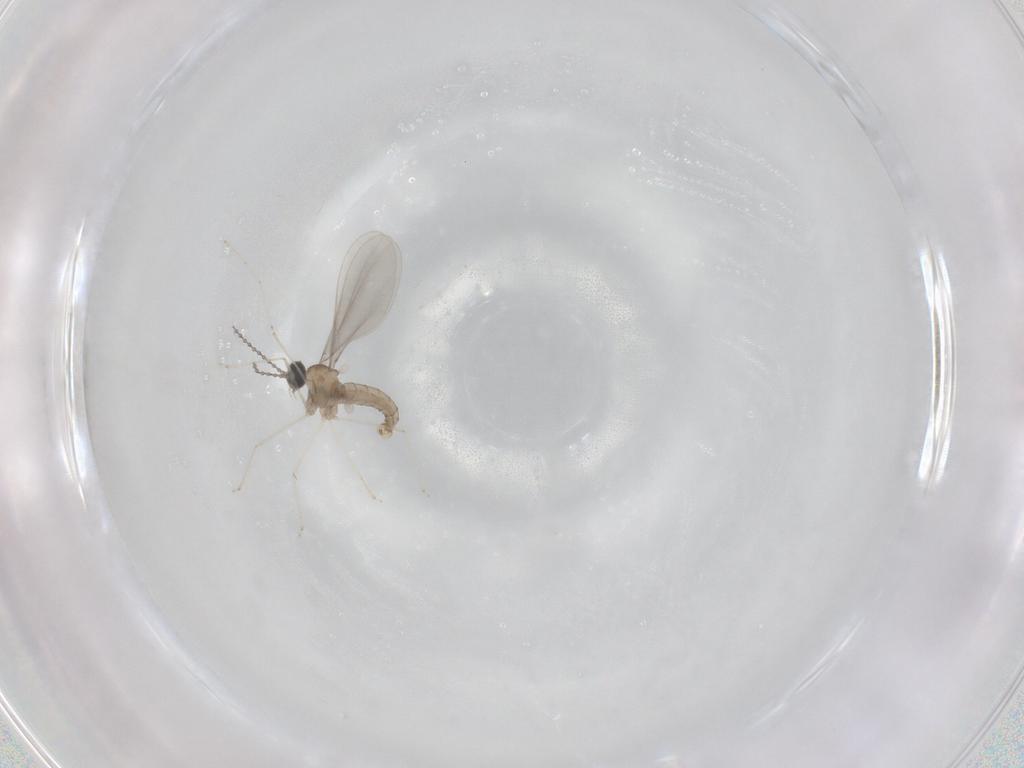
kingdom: Animalia
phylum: Arthropoda
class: Insecta
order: Diptera
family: Cecidomyiidae
